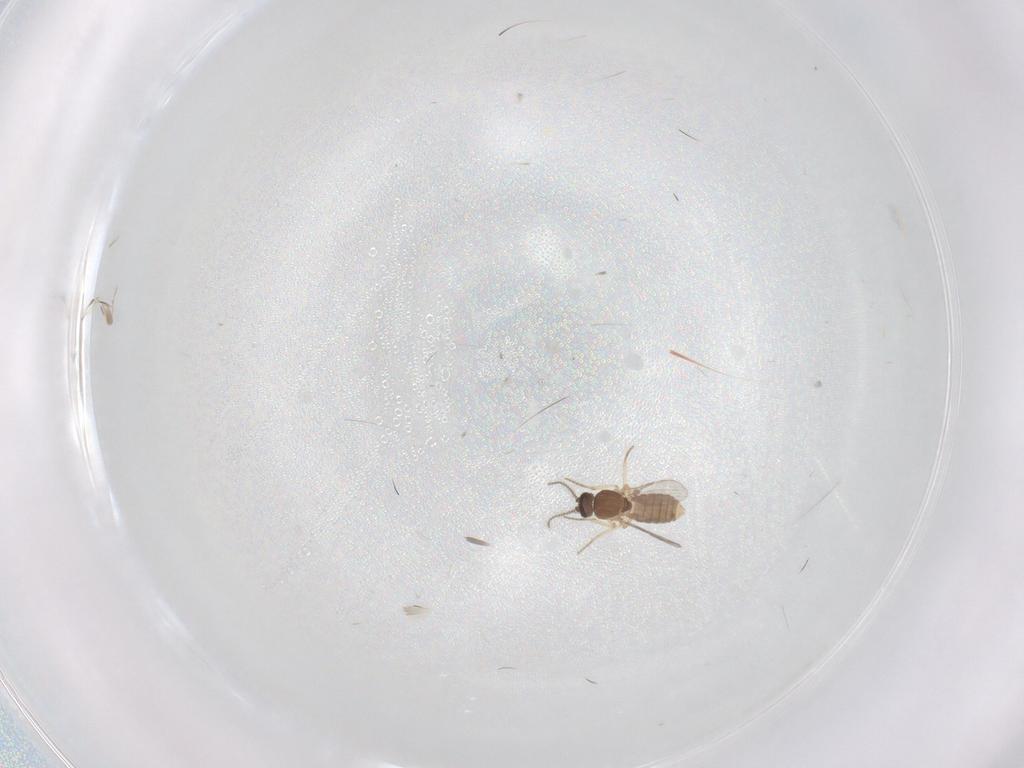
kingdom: Animalia
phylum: Arthropoda
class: Insecta
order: Diptera
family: Ceratopogonidae
